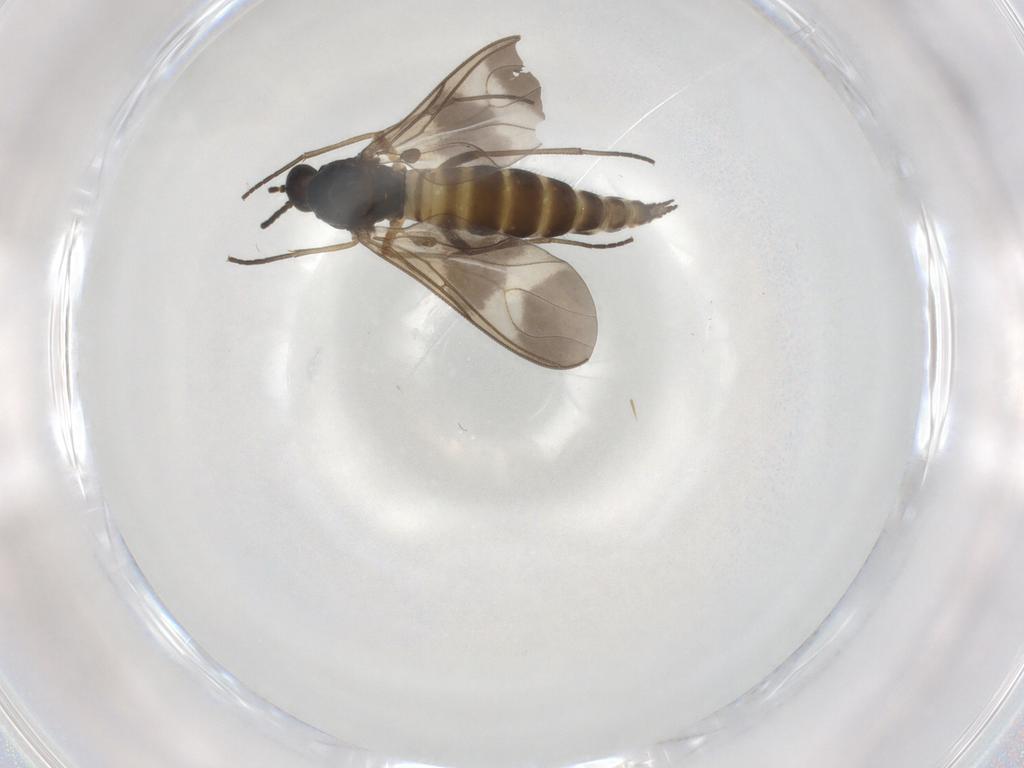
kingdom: Animalia
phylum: Arthropoda
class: Insecta
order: Diptera
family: Sciaridae
